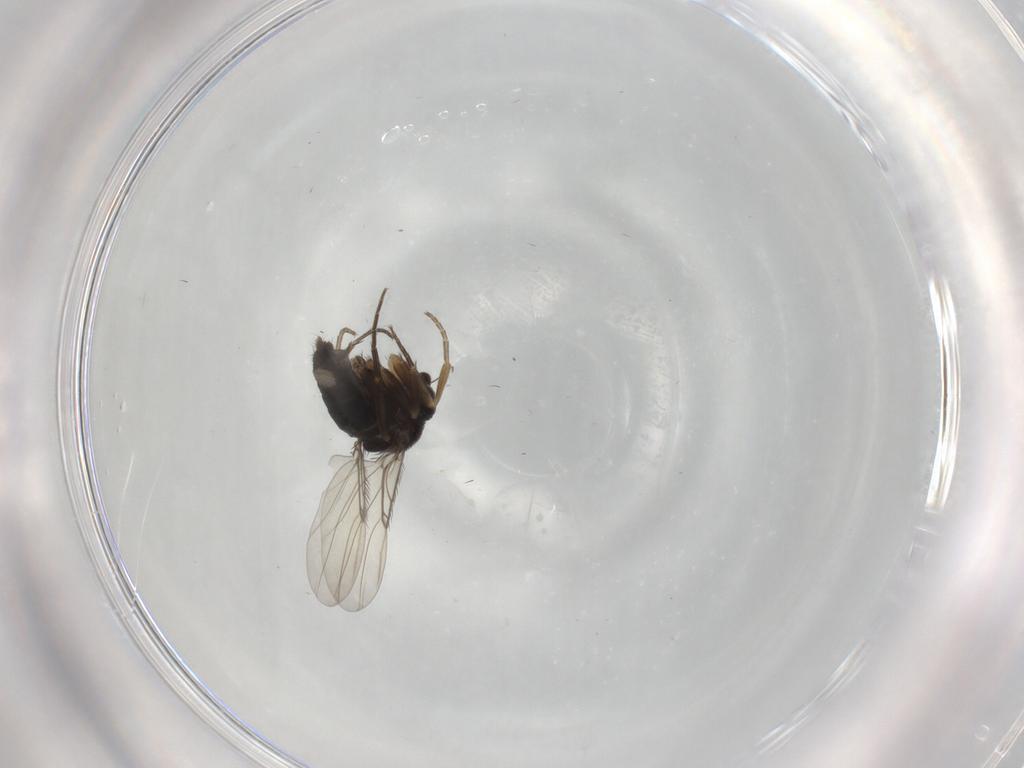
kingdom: Animalia
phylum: Arthropoda
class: Insecta
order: Diptera
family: Phoridae
